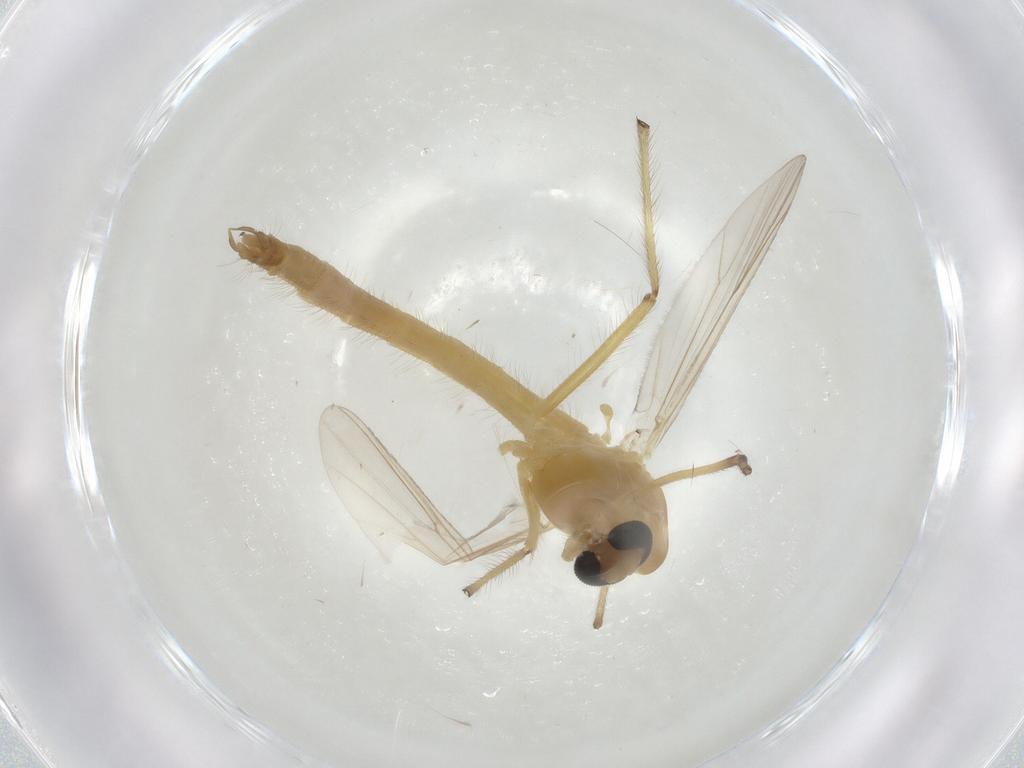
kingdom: Animalia
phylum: Arthropoda
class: Insecta
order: Diptera
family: Chironomidae
